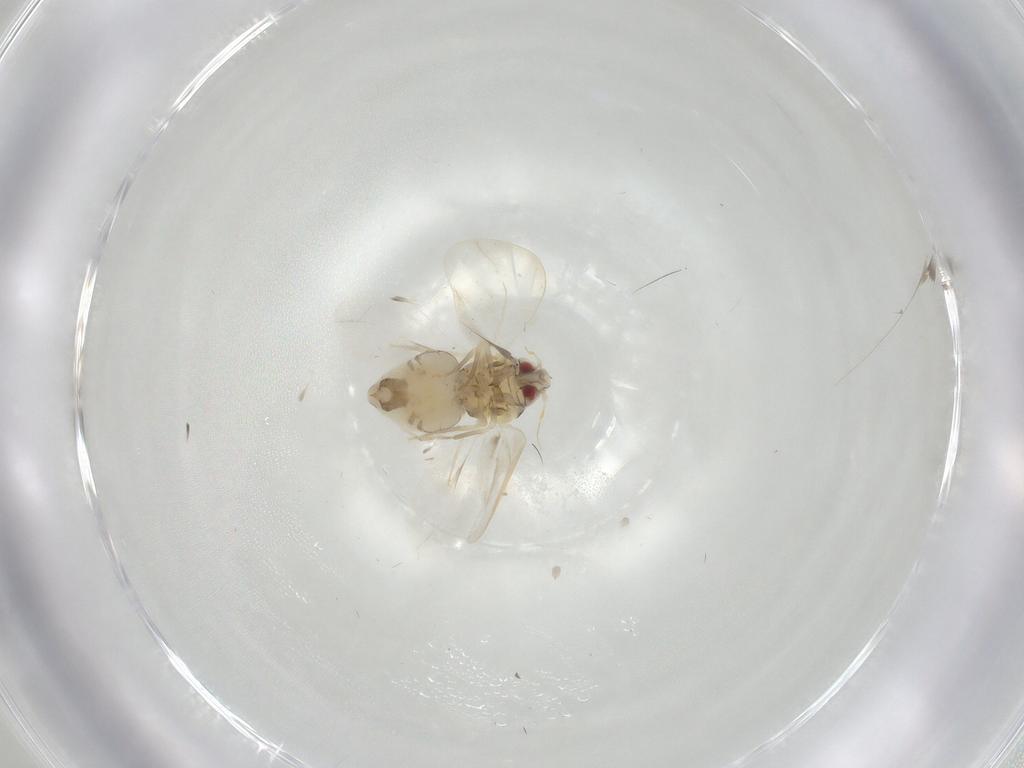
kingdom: Animalia
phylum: Arthropoda
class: Insecta
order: Hemiptera
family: Aleyrodidae
